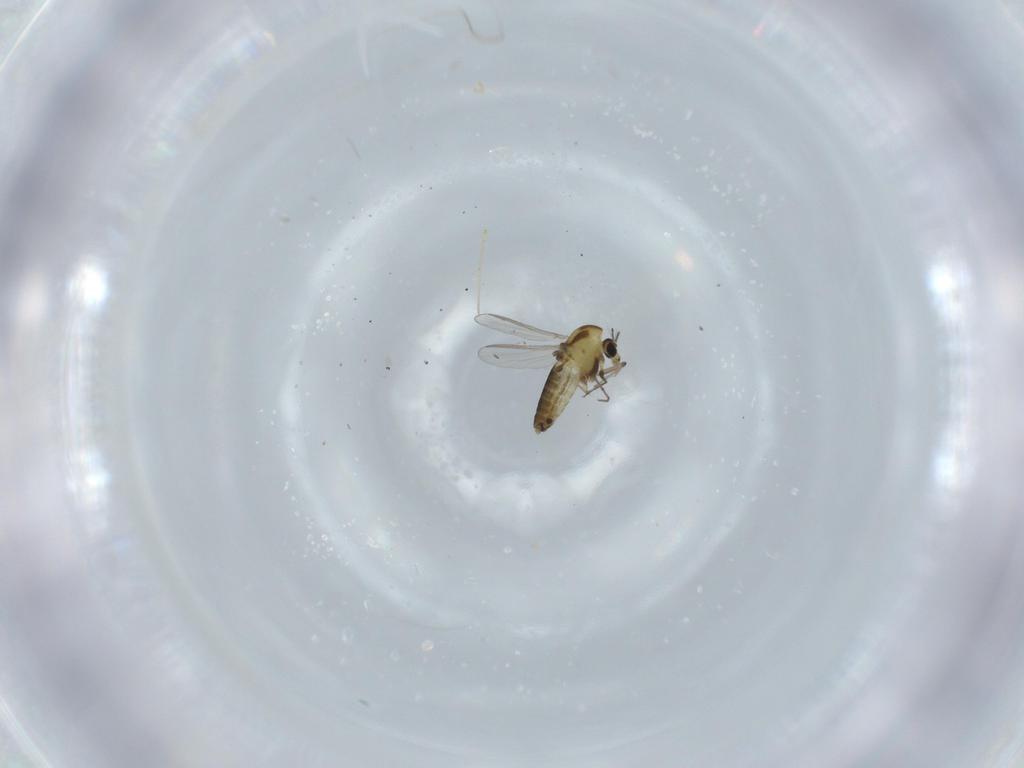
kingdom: Animalia
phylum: Arthropoda
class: Insecta
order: Diptera
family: Chironomidae
